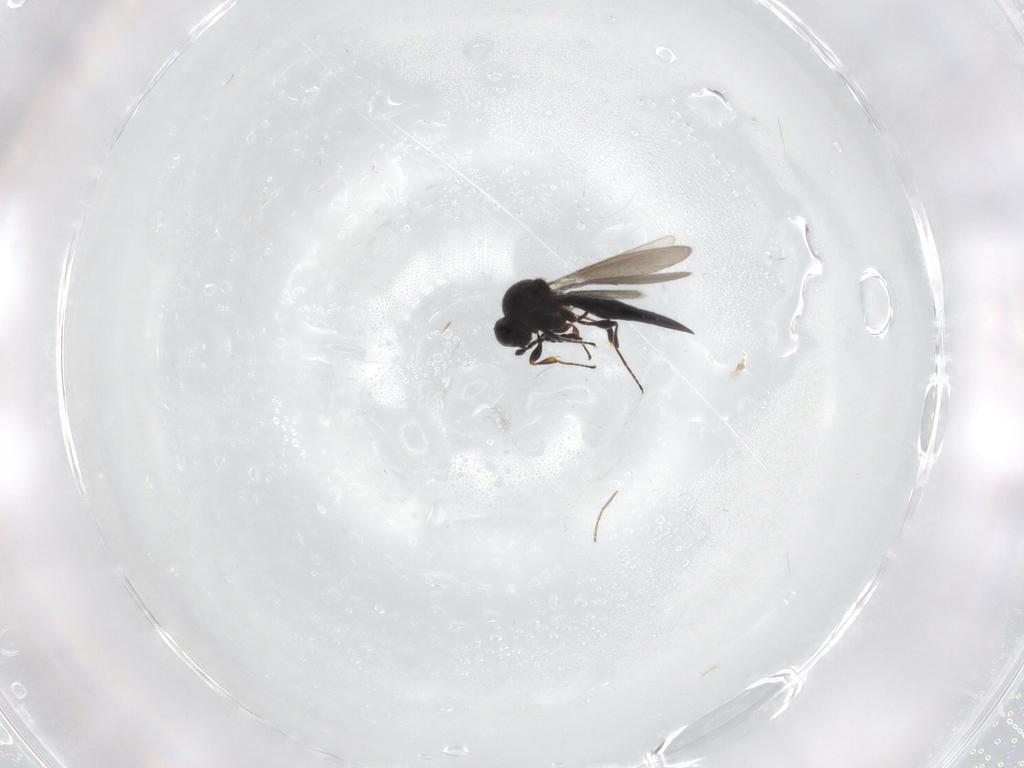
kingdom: Animalia
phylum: Arthropoda
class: Insecta
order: Hymenoptera
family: Platygastridae
